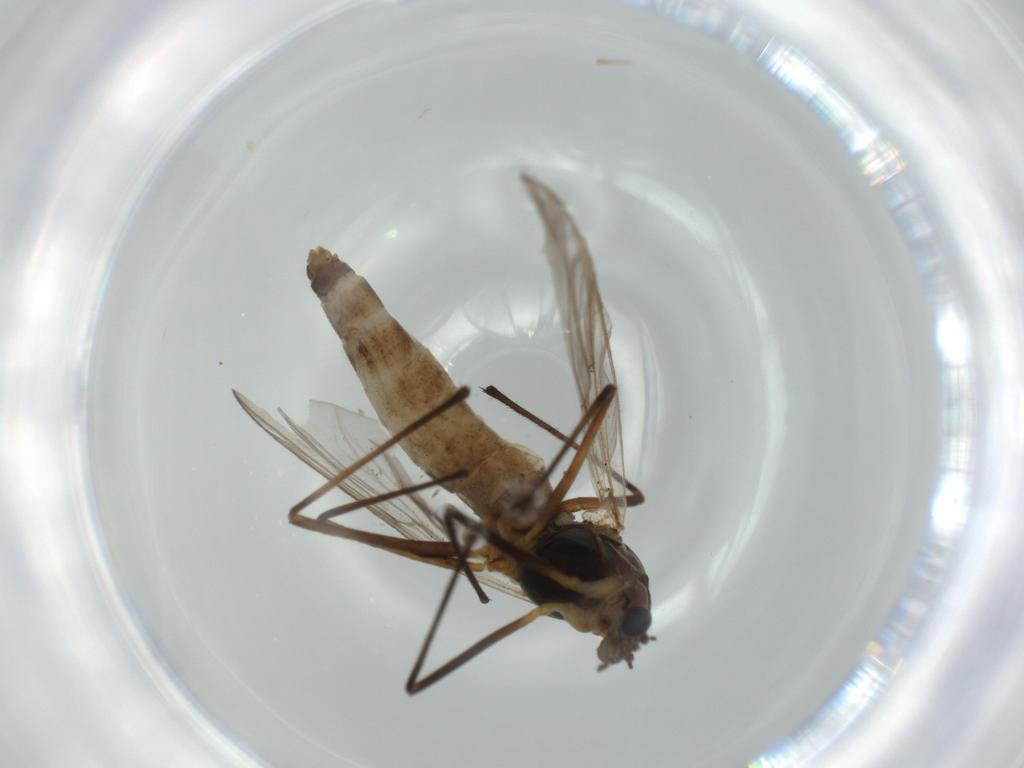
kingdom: Animalia
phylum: Arthropoda
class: Insecta
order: Diptera
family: Chironomidae
